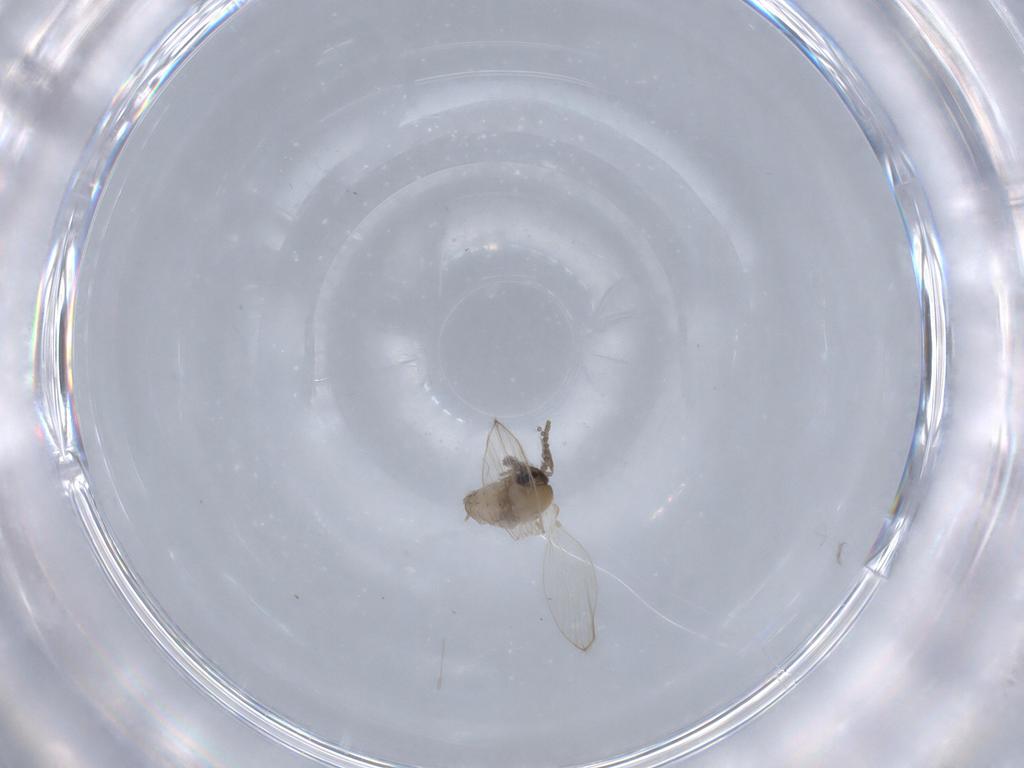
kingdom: Animalia
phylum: Arthropoda
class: Insecta
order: Diptera
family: Psychodidae
